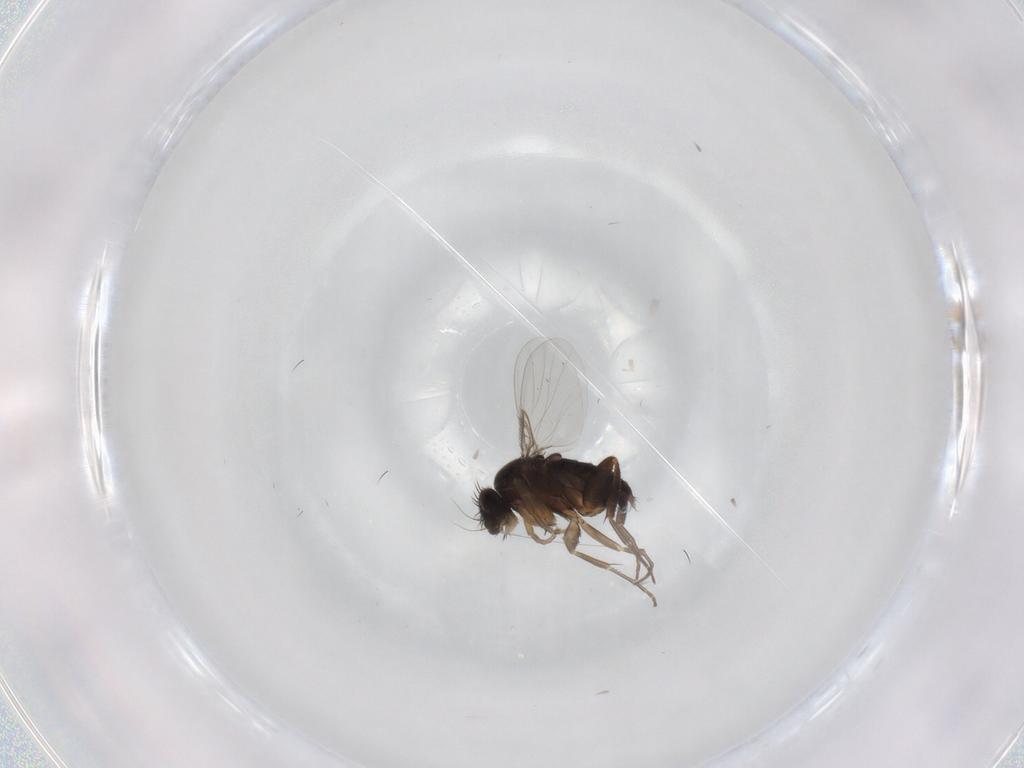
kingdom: Animalia
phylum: Arthropoda
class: Insecta
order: Diptera
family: Phoridae
